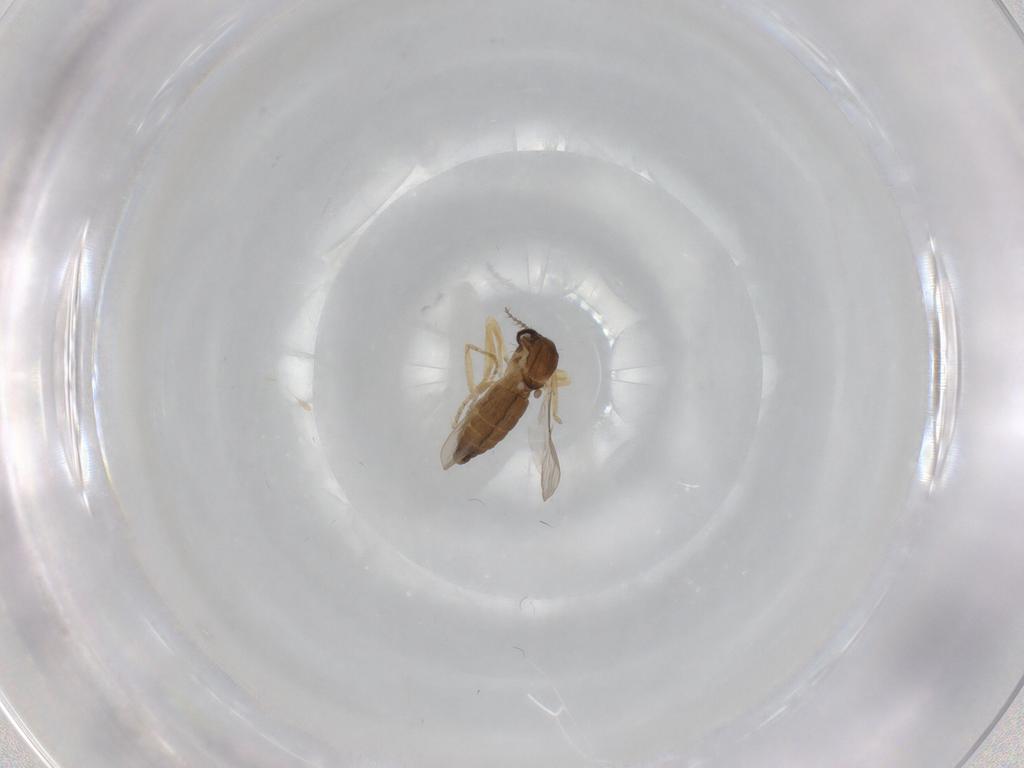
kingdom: Animalia
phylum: Arthropoda
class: Insecta
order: Diptera
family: Ceratopogonidae
